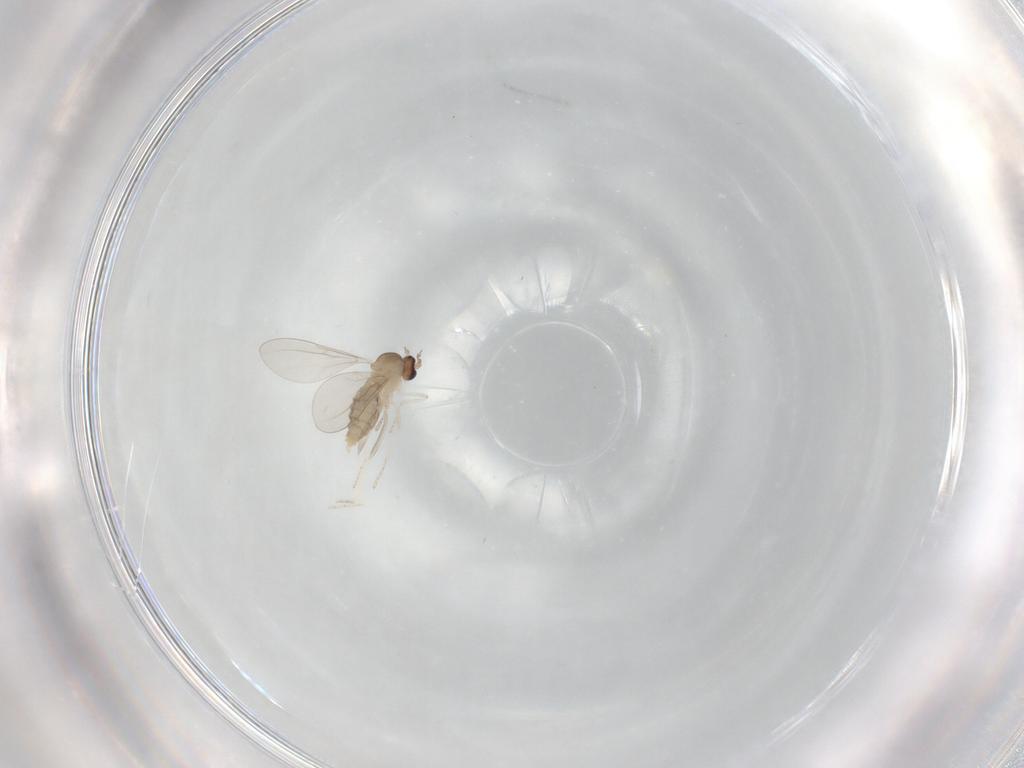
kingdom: Animalia
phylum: Arthropoda
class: Insecta
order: Diptera
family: Cecidomyiidae
